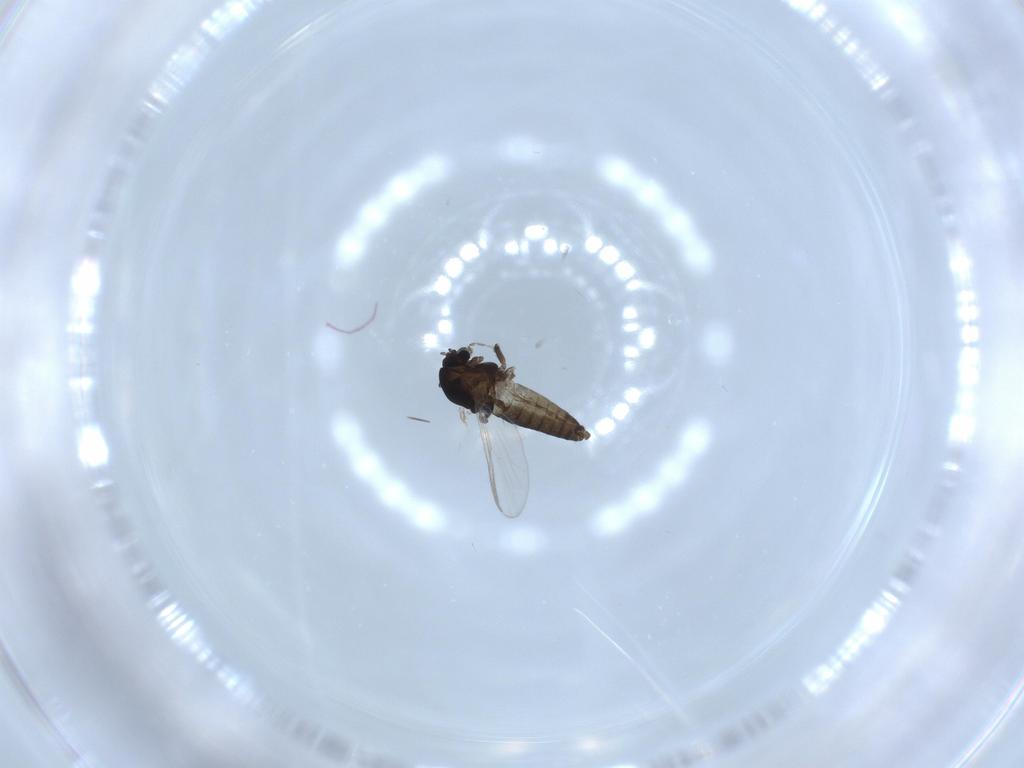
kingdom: Animalia
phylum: Arthropoda
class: Insecta
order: Diptera
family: Chironomidae
